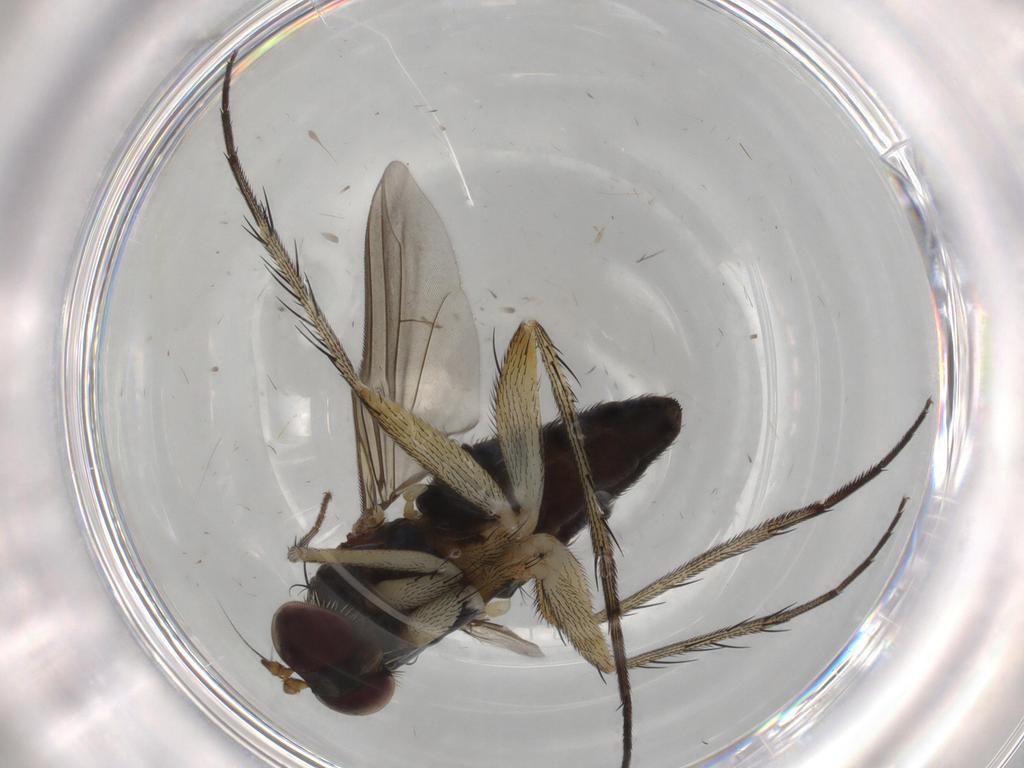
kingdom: Animalia
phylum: Arthropoda
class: Insecta
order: Diptera
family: Dolichopodidae
